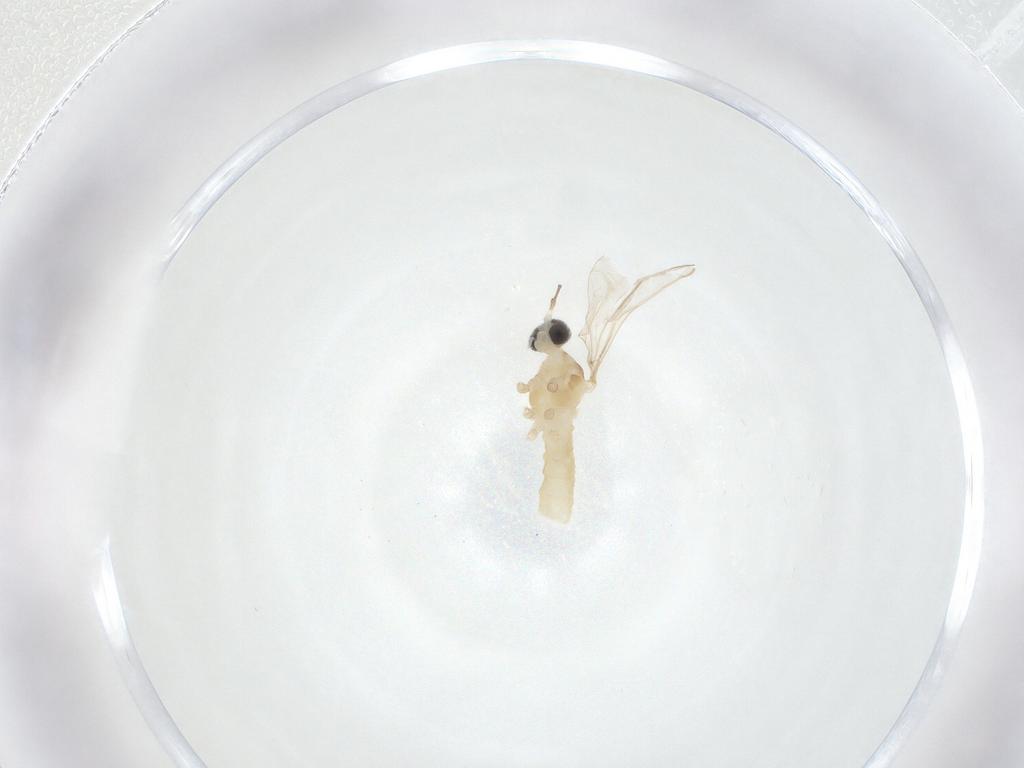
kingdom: Animalia
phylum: Arthropoda
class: Insecta
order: Diptera
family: Cecidomyiidae
